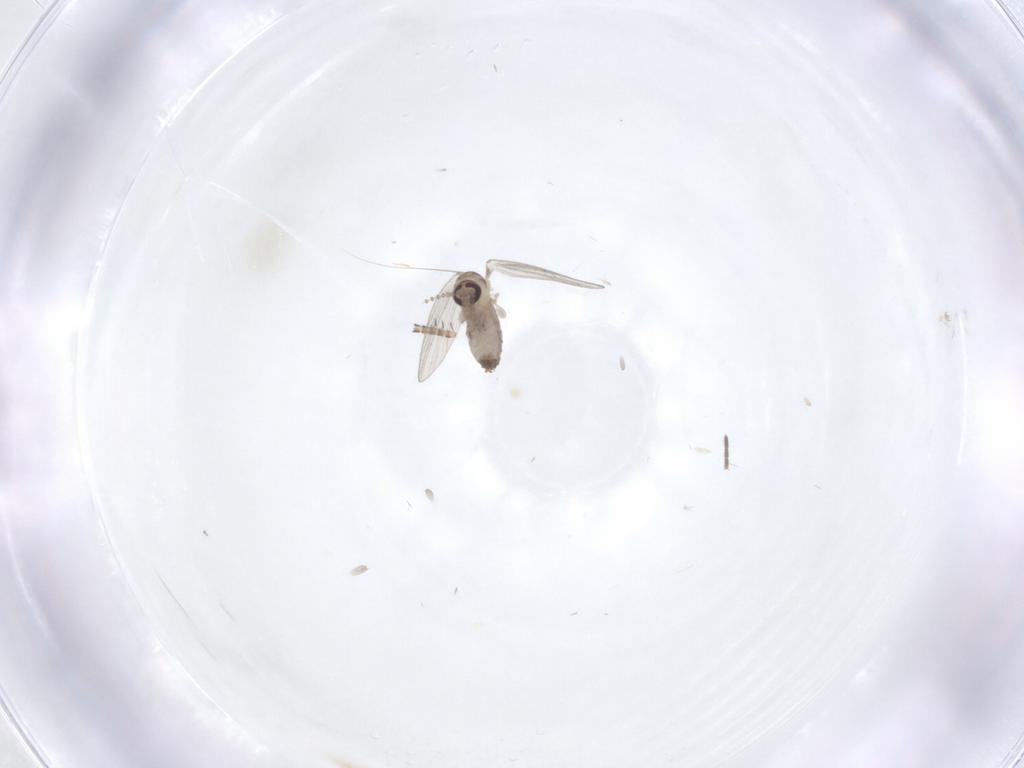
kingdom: Animalia
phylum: Arthropoda
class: Insecta
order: Diptera
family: Psychodidae
